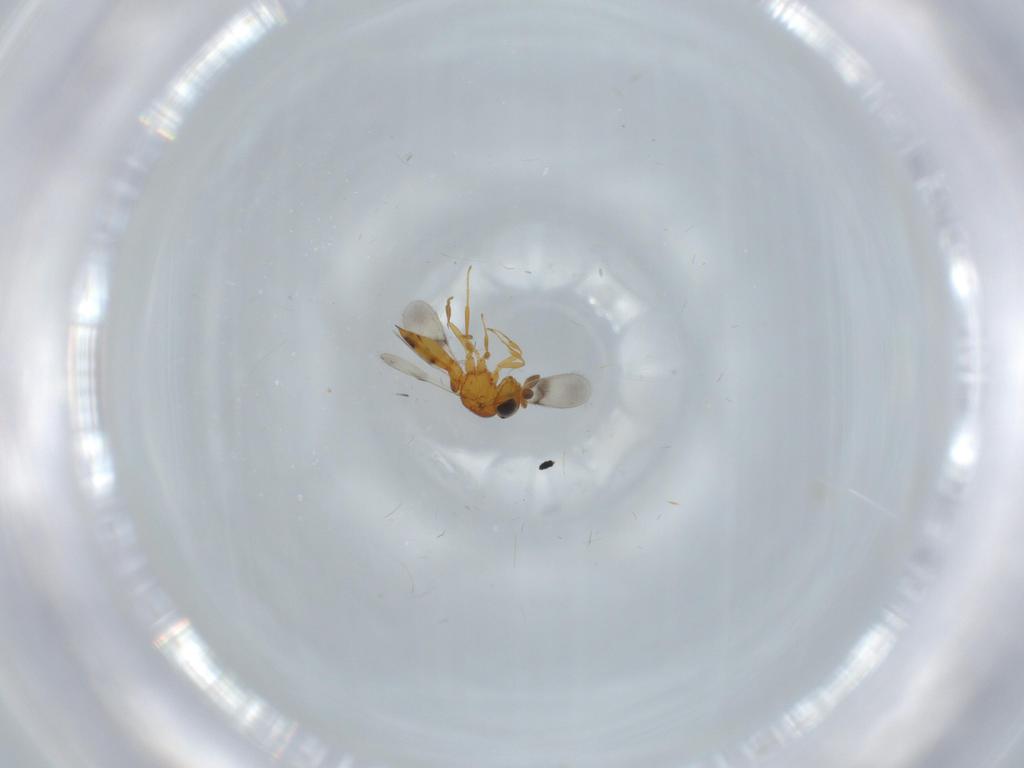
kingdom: Animalia
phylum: Arthropoda
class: Insecta
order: Hymenoptera
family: Scelionidae
